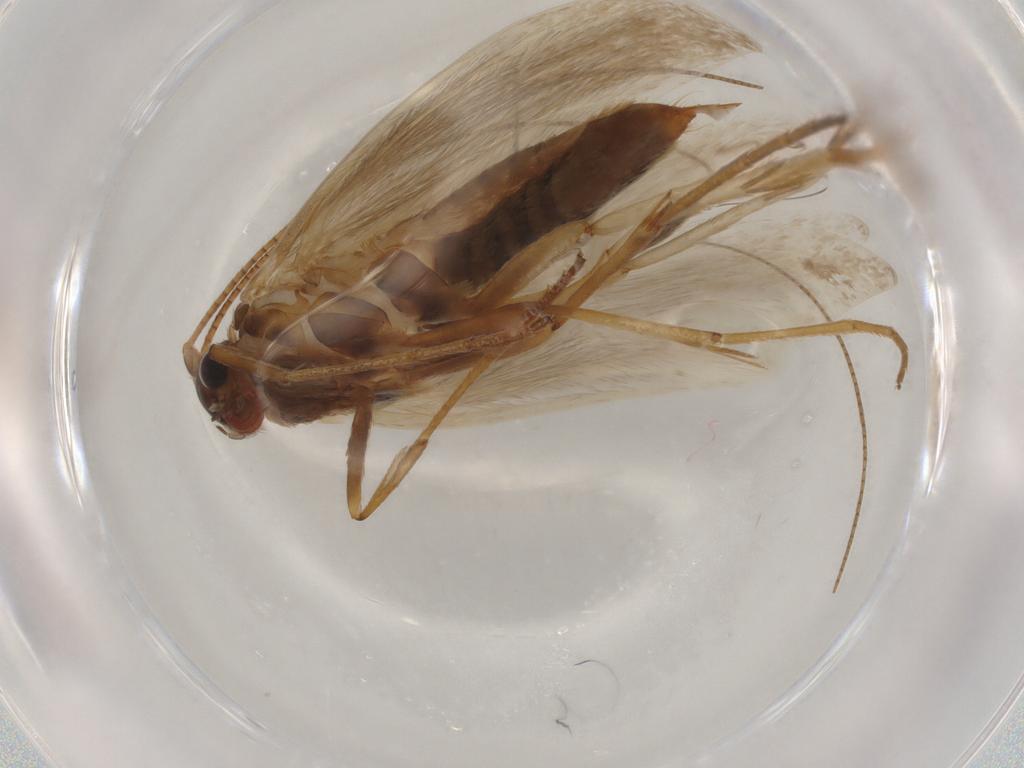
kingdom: Animalia
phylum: Arthropoda
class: Insecta
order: Lepidoptera
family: Adelidae
